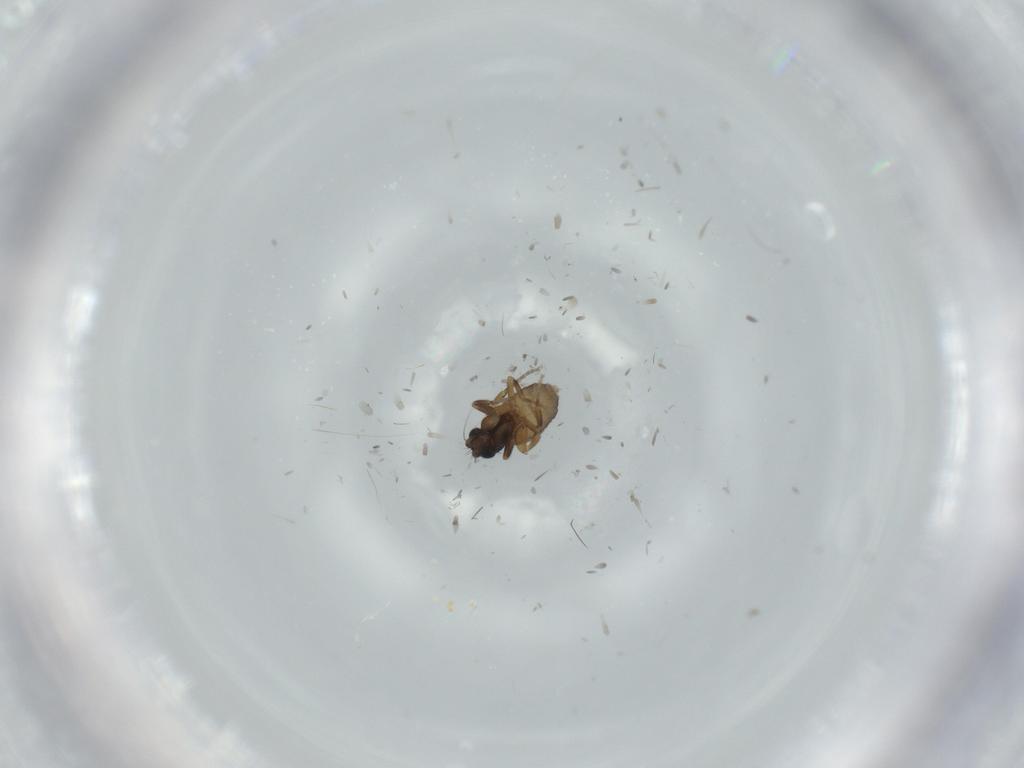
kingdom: Animalia
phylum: Arthropoda
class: Insecta
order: Diptera
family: Phoridae
